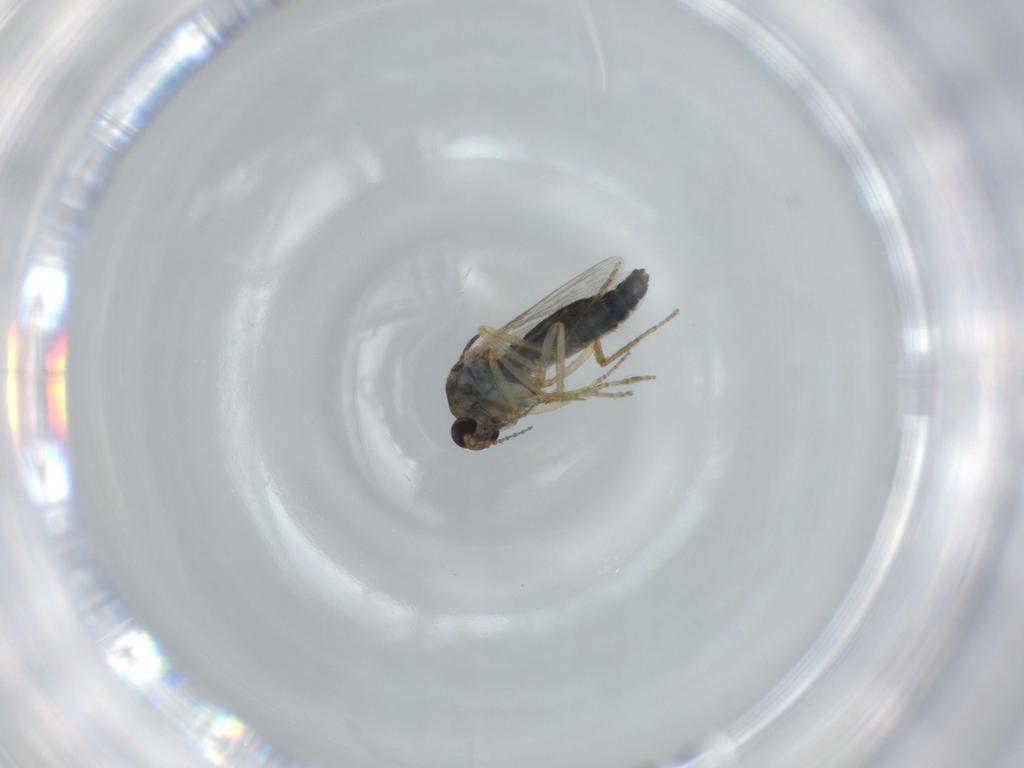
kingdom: Animalia
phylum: Arthropoda
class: Insecta
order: Diptera
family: Ceratopogonidae
